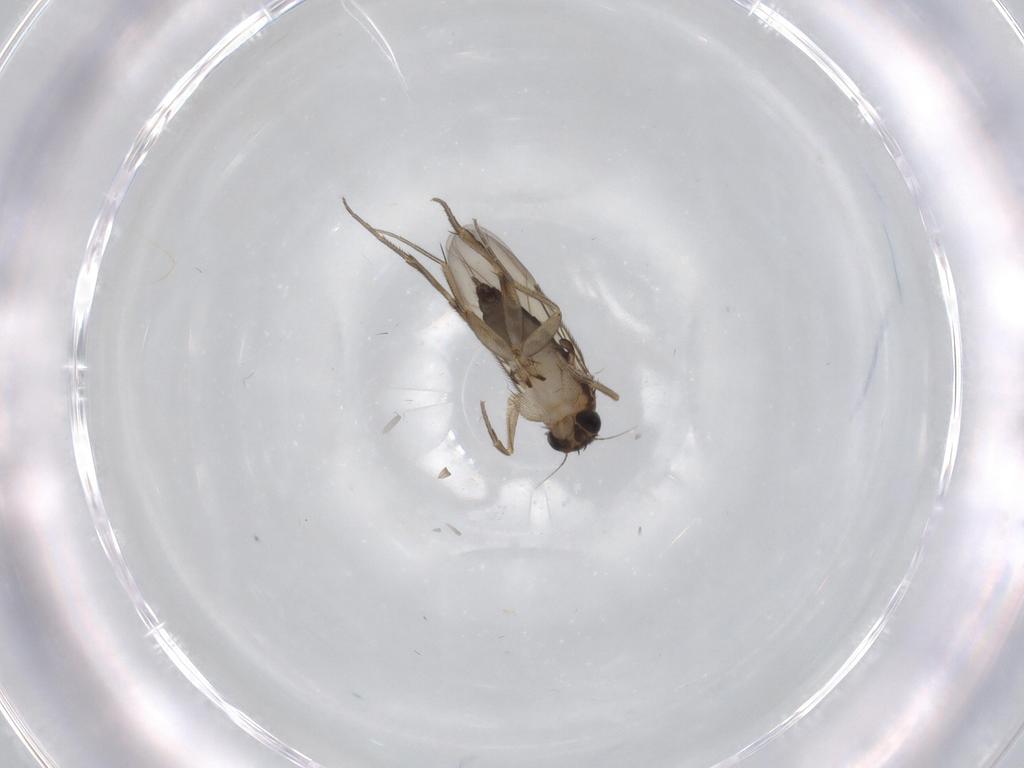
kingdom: Animalia
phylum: Arthropoda
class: Insecta
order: Diptera
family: Phoridae
